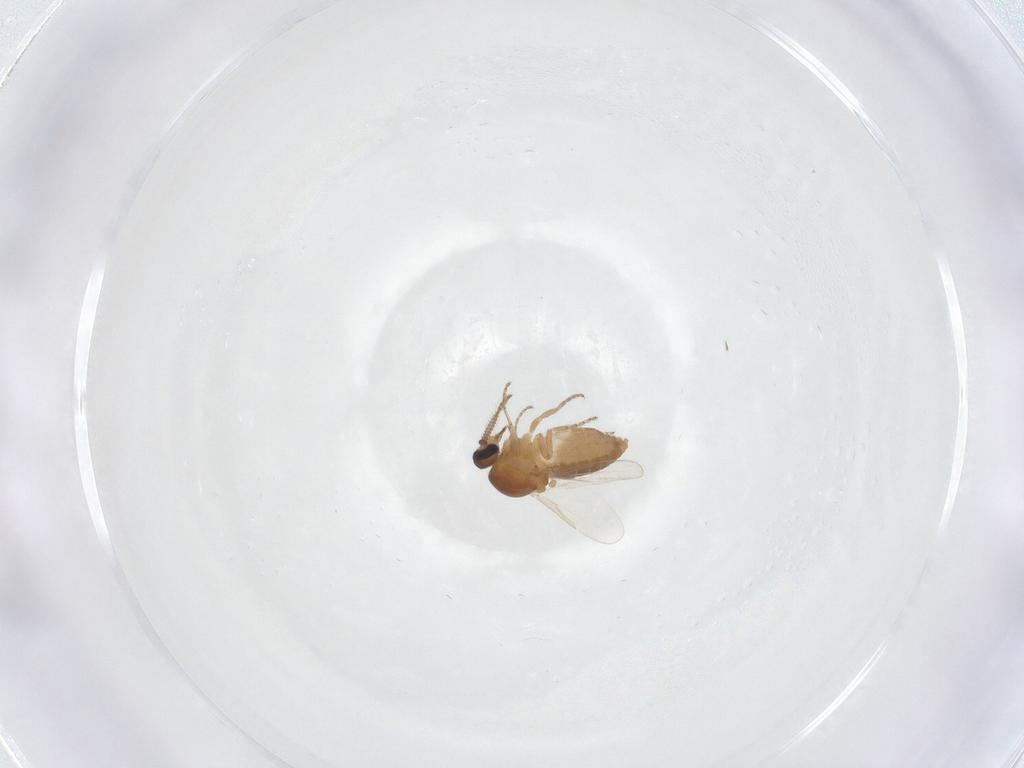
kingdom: Animalia
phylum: Arthropoda
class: Insecta
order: Diptera
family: Ceratopogonidae
